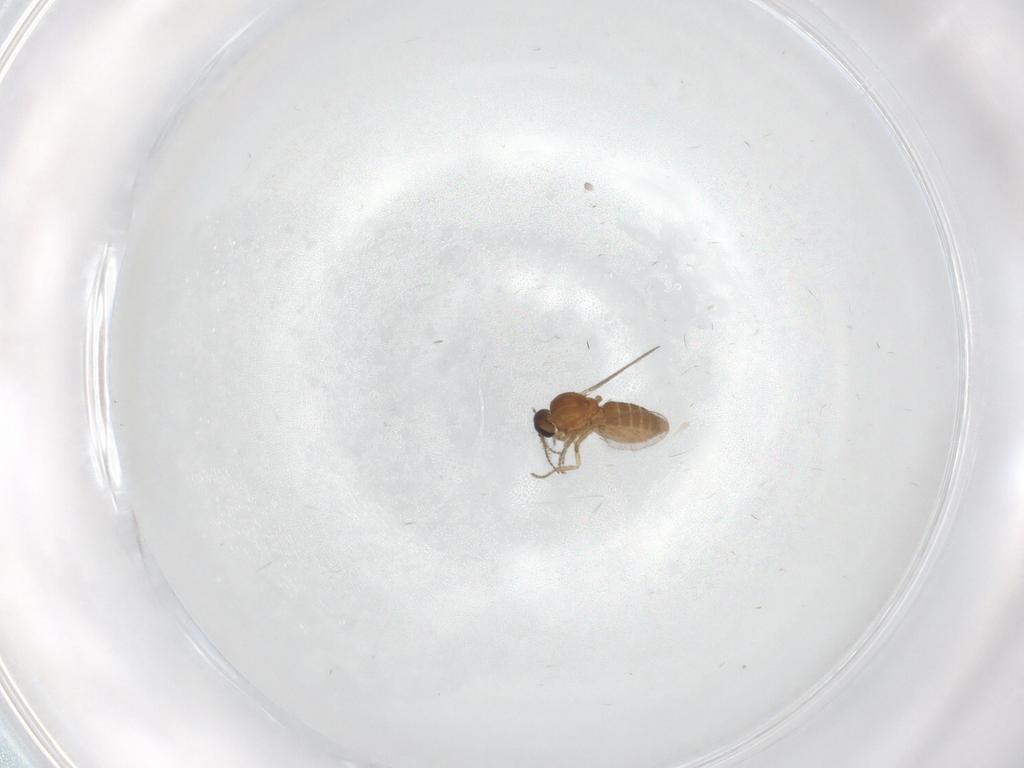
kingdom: Animalia
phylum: Arthropoda
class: Insecta
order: Diptera
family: Ceratopogonidae
